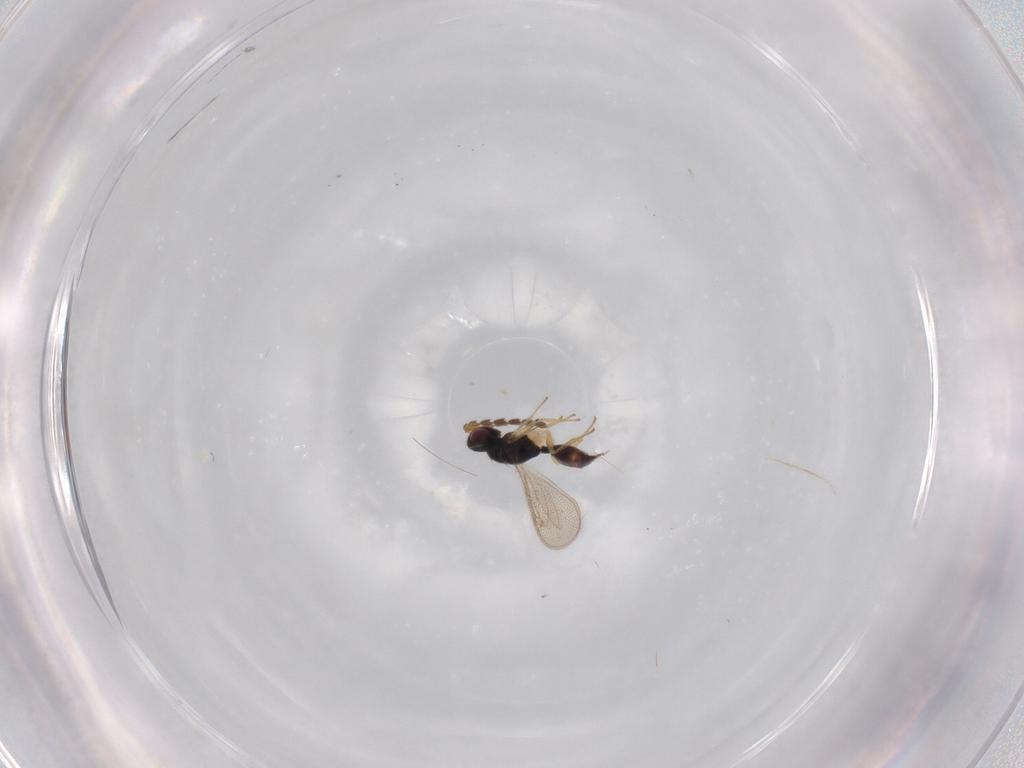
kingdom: Animalia
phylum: Arthropoda
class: Insecta
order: Hymenoptera
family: Eulophidae
